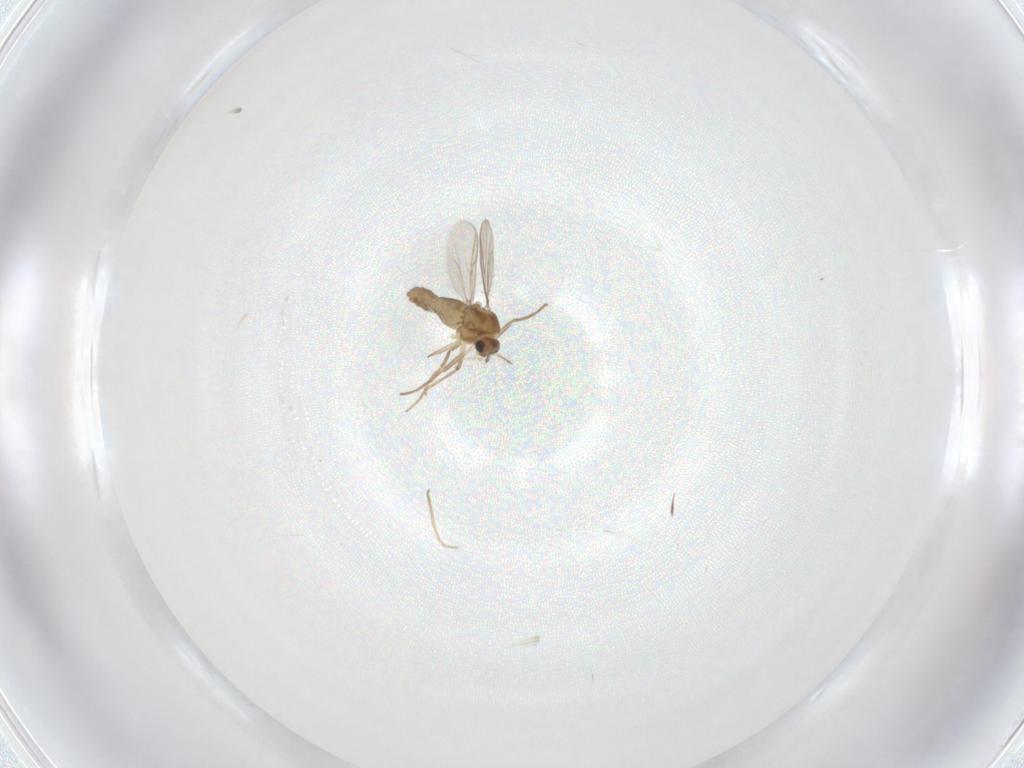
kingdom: Animalia
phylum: Arthropoda
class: Insecta
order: Diptera
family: Chironomidae
